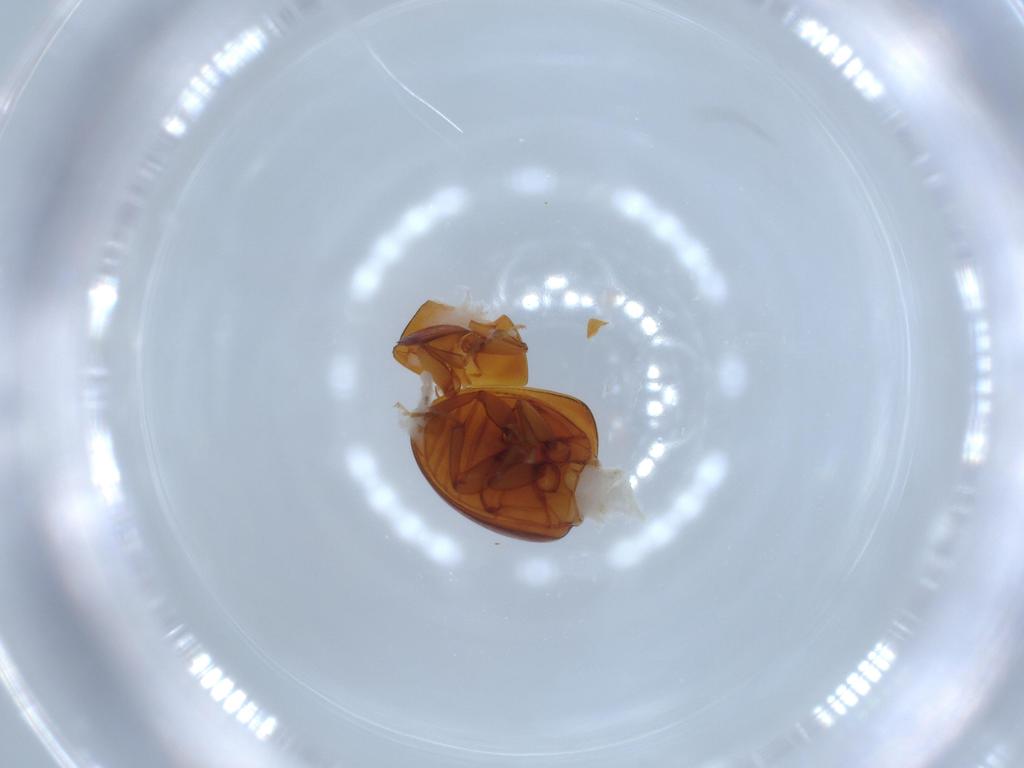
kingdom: Animalia
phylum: Arthropoda
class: Insecta
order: Coleoptera
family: Phalacridae
